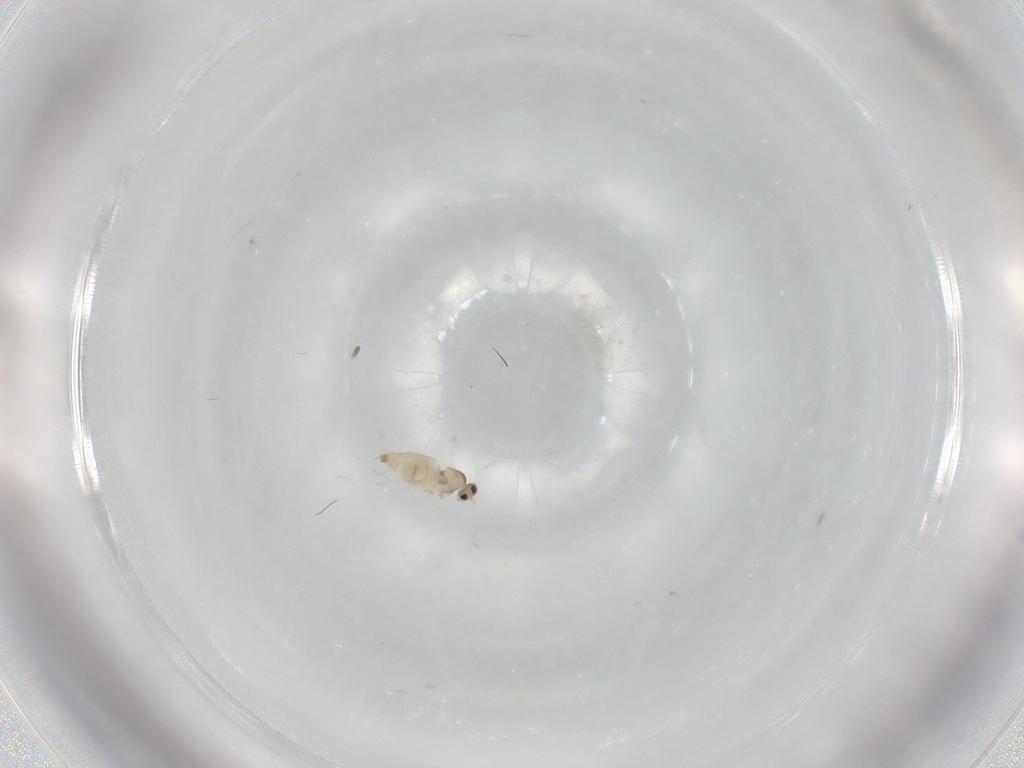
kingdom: Animalia
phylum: Arthropoda
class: Insecta
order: Diptera
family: Cecidomyiidae
